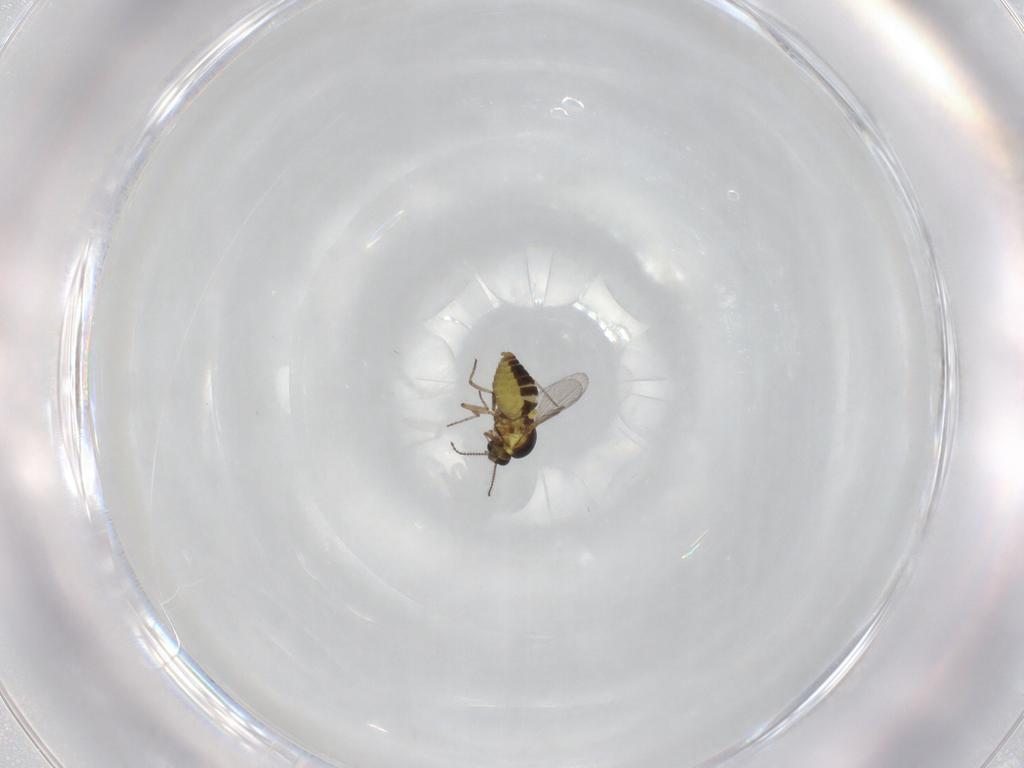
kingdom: Animalia
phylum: Arthropoda
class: Insecta
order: Diptera
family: Ceratopogonidae
